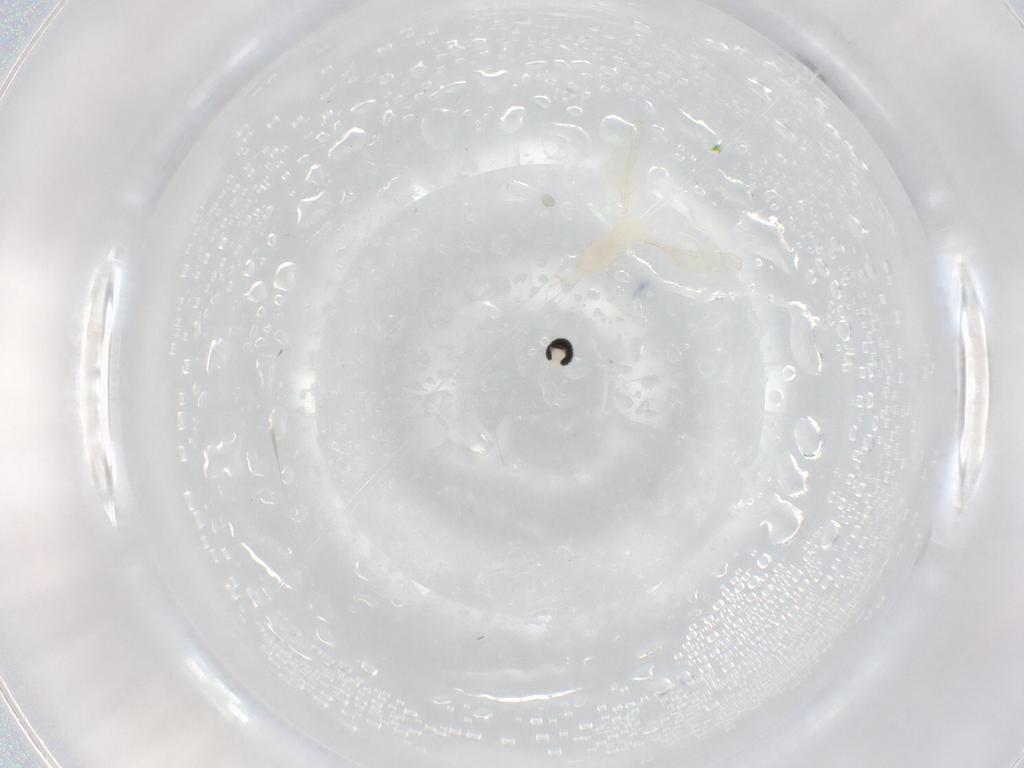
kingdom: Animalia
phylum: Arthropoda
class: Insecta
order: Diptera
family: Cecidomyiidae
